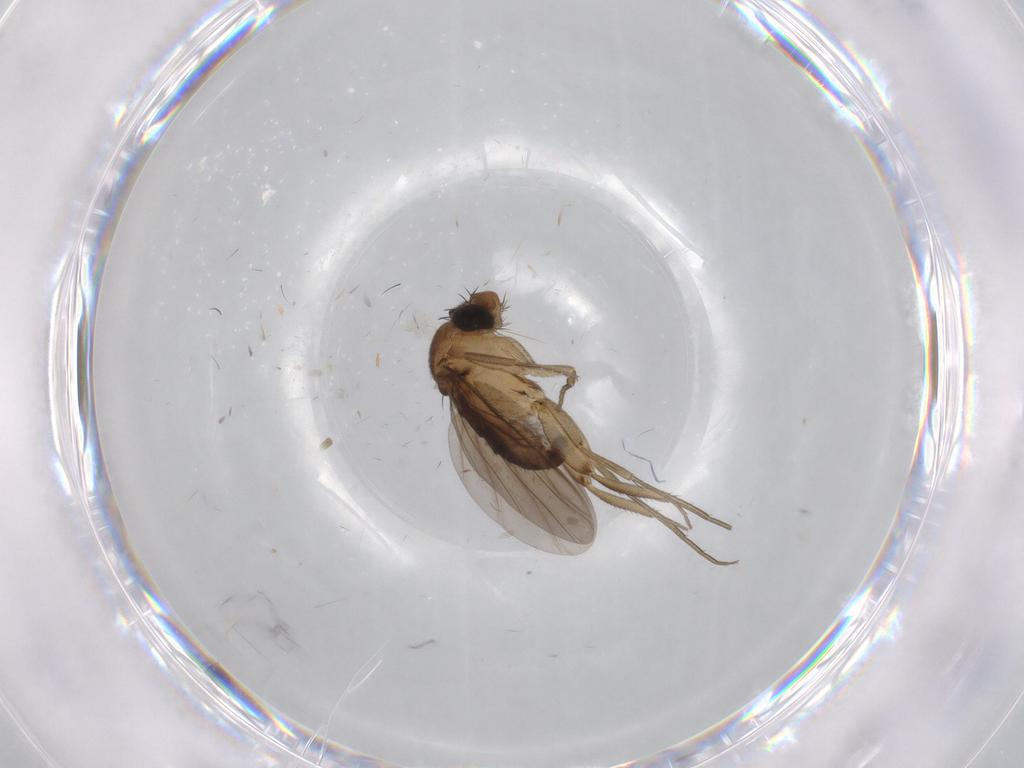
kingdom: Animalia
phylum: Arthropoda
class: Insecta
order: Diptera
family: Phoridae
